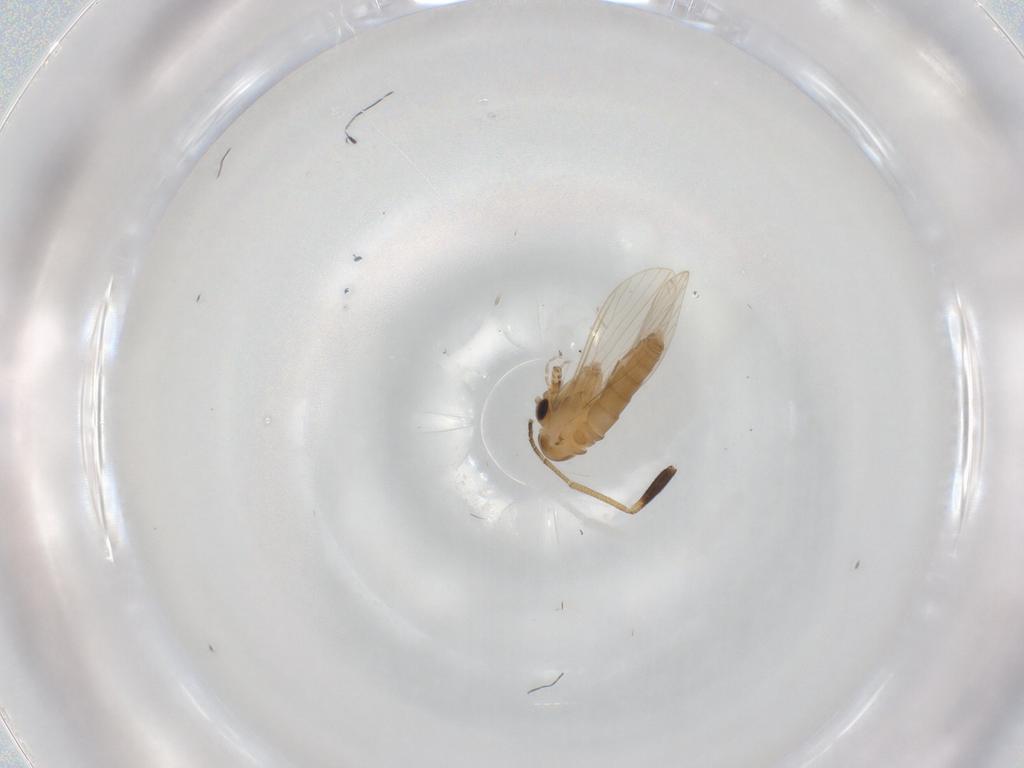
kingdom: Animalia
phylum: Arthropoda
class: Insecta
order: Diptera
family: Psychodidae
